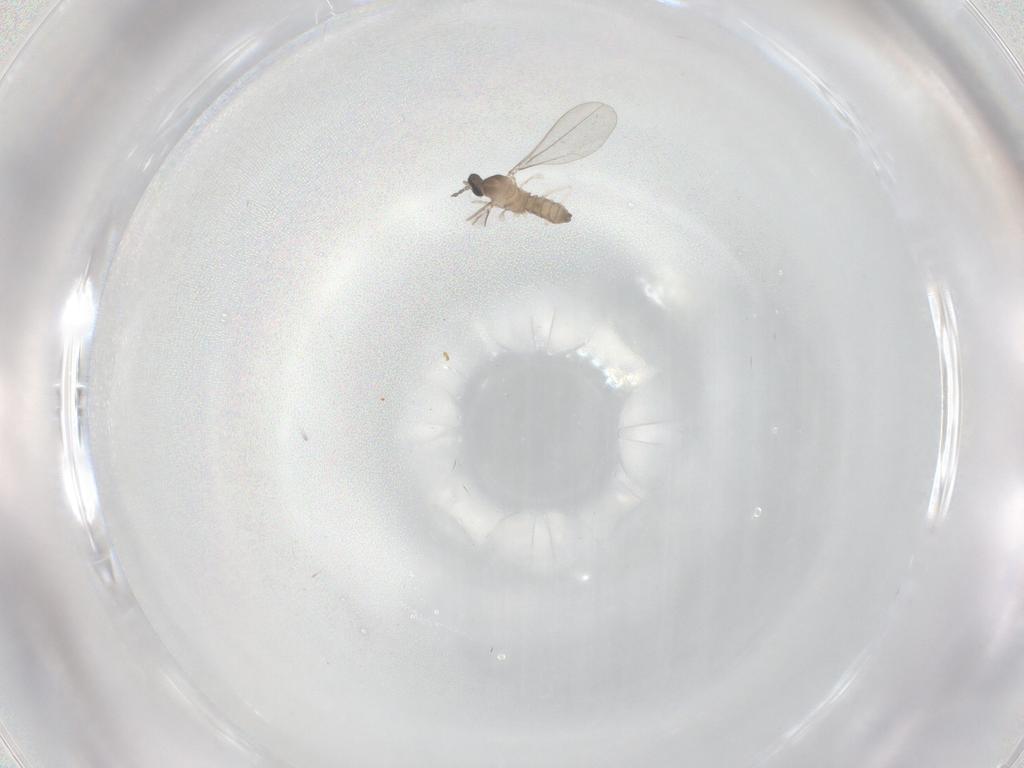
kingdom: Animalia
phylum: Arthropoda
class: Insecta
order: Diptera
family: Cecidomyiidae
